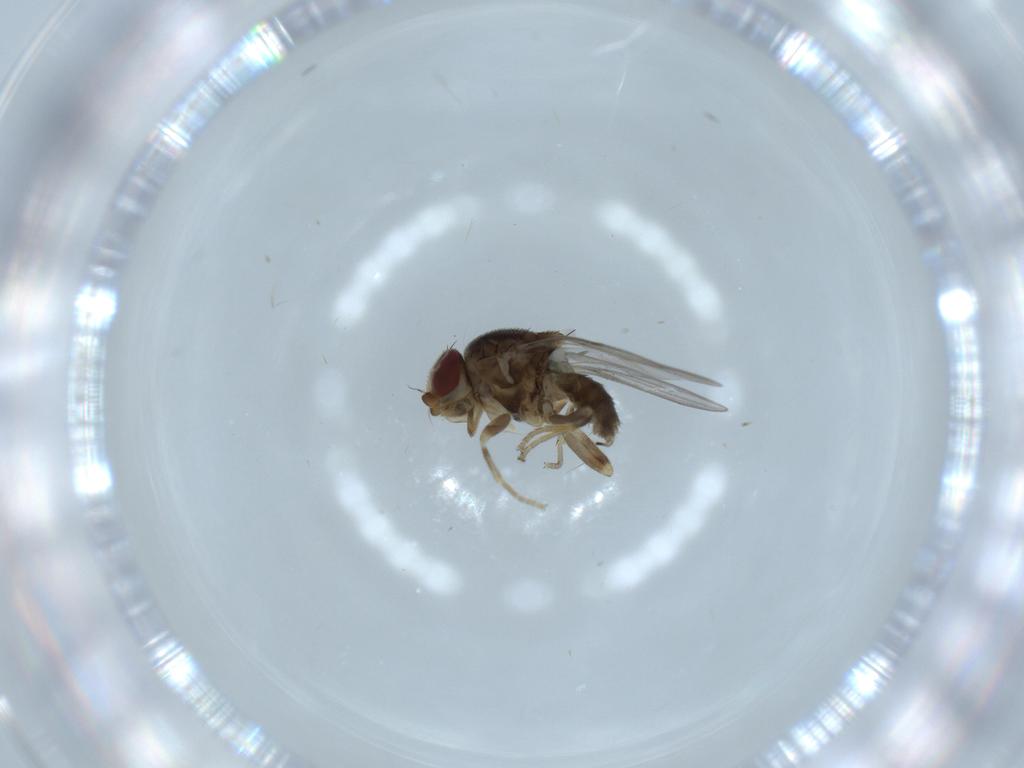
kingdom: Animalia
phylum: Arthropoda
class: Insecta
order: Diptera
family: Chloropidae
